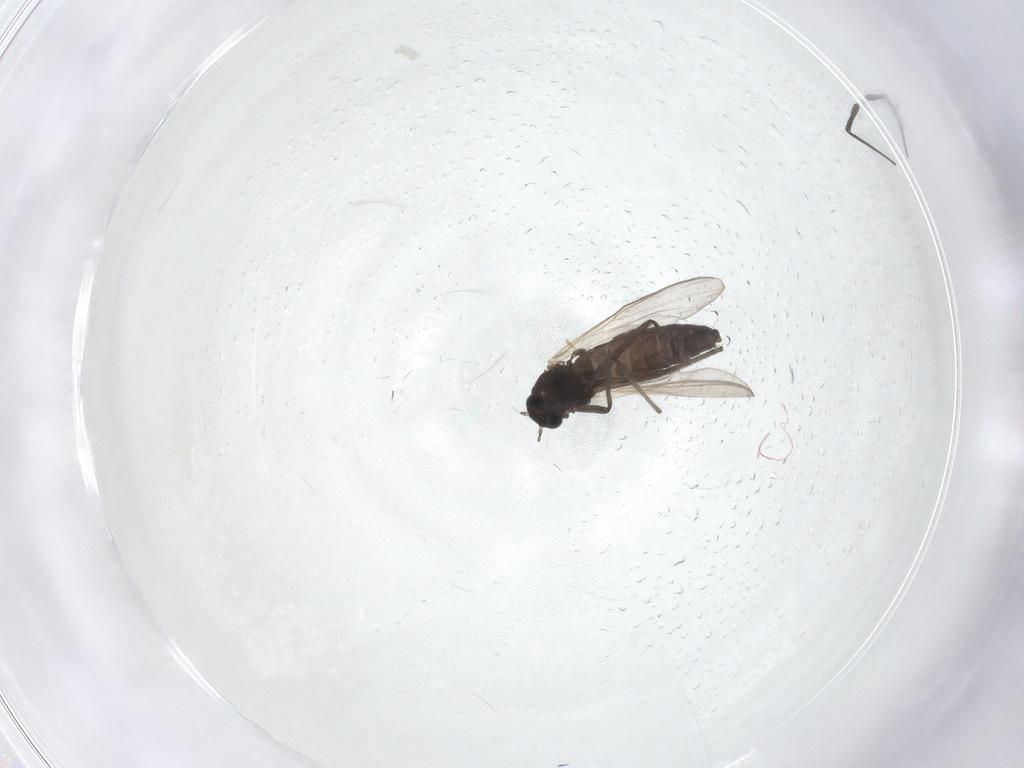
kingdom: Animalia
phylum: Arthropoda
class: Insecta
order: Diptera
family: Chironomidae
